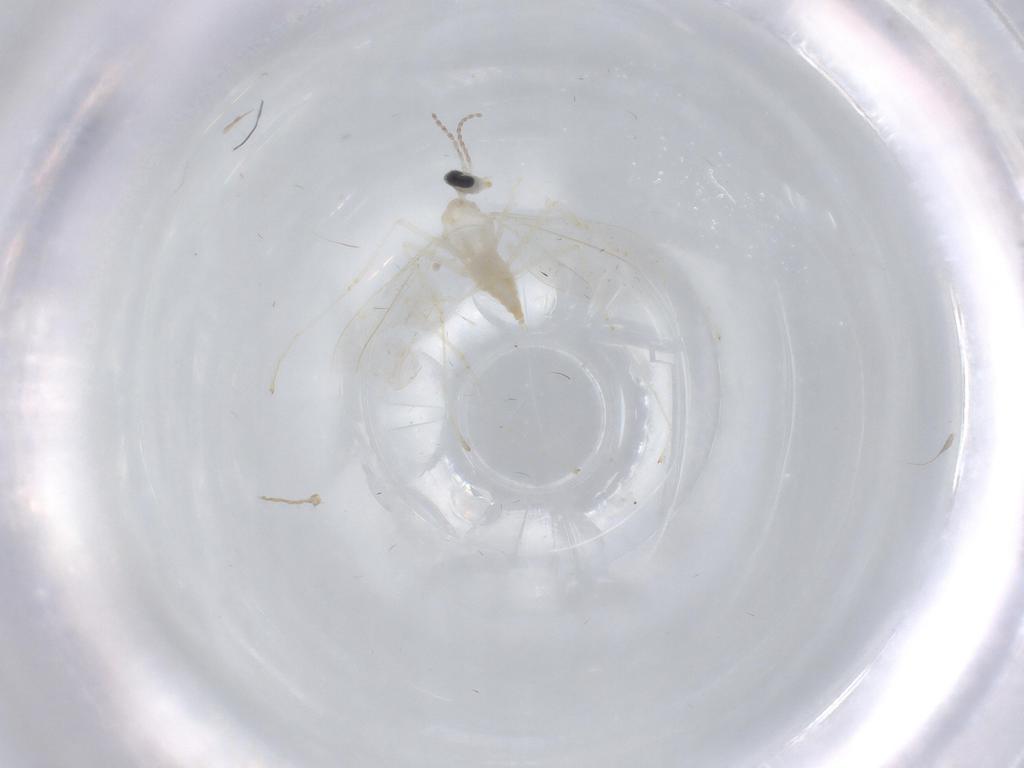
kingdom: Animalia
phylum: Arthropoda
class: Insecta
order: Diptera
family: Cecidomyiidae
